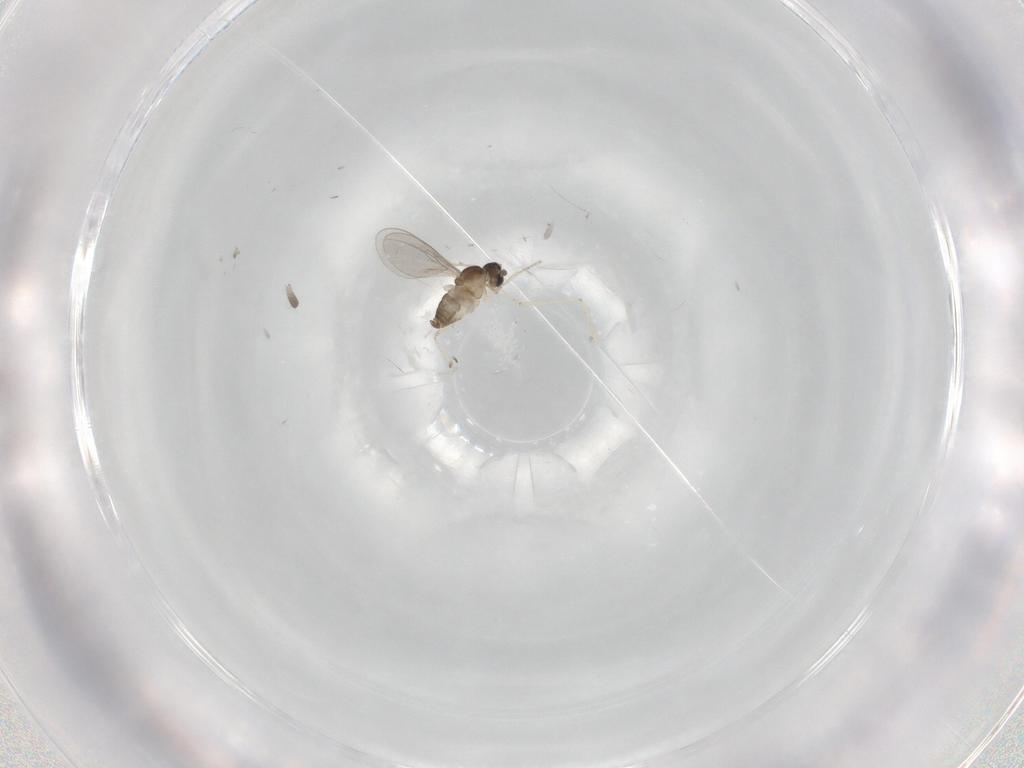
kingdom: Animalia
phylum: Arthropoda
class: Insecta
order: Diptera
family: Cecidomyiidae
